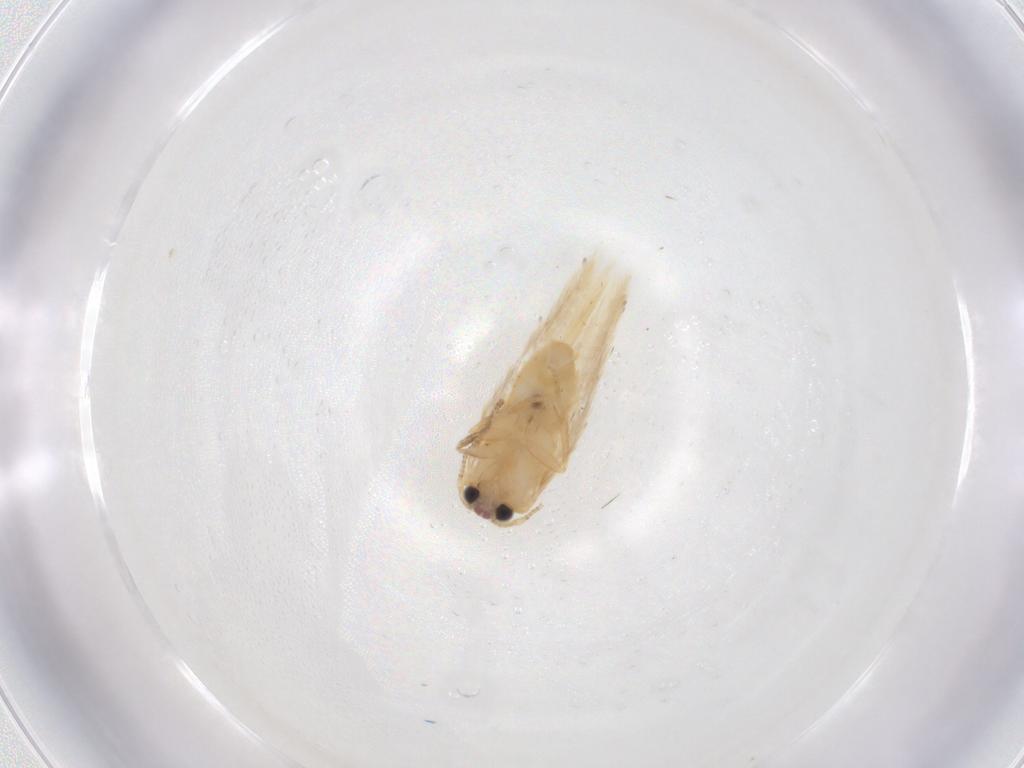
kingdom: Animalia
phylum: Arthropoda
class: Insecta
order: Lepidoptera
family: Nepticulidae
